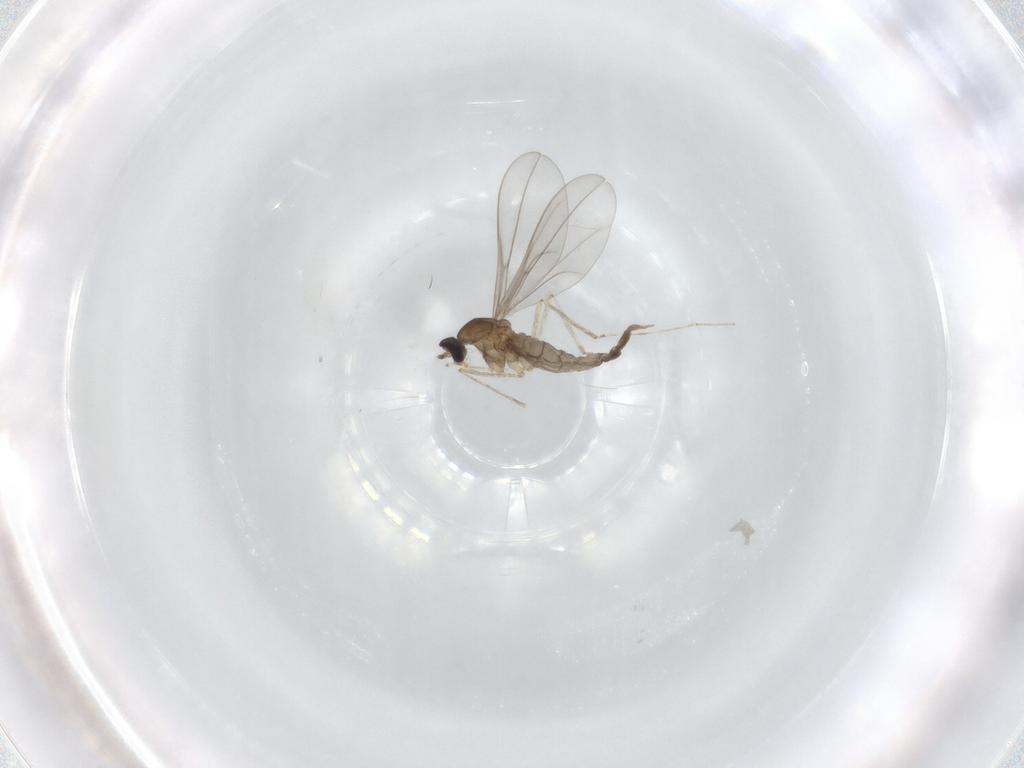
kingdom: Animalia
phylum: Arthropoda
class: Insecta
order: Diptera
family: Cecidomyiidae
